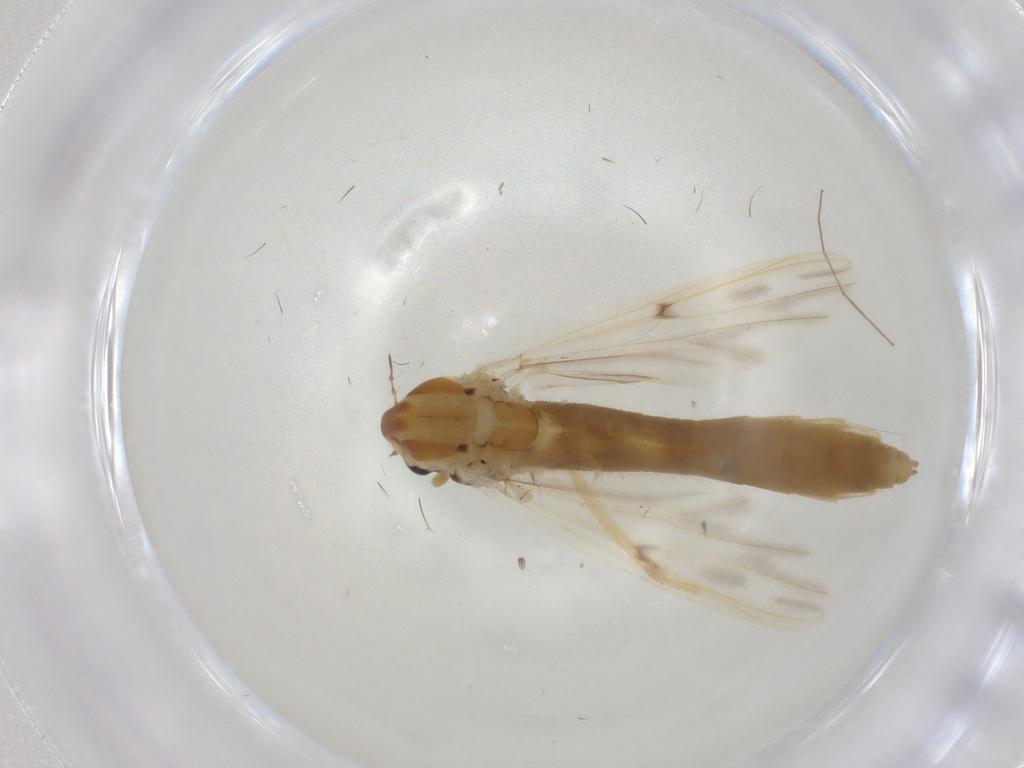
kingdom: Animalia
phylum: Arthropoda
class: Insecta
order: Diptera
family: Chironomidae
